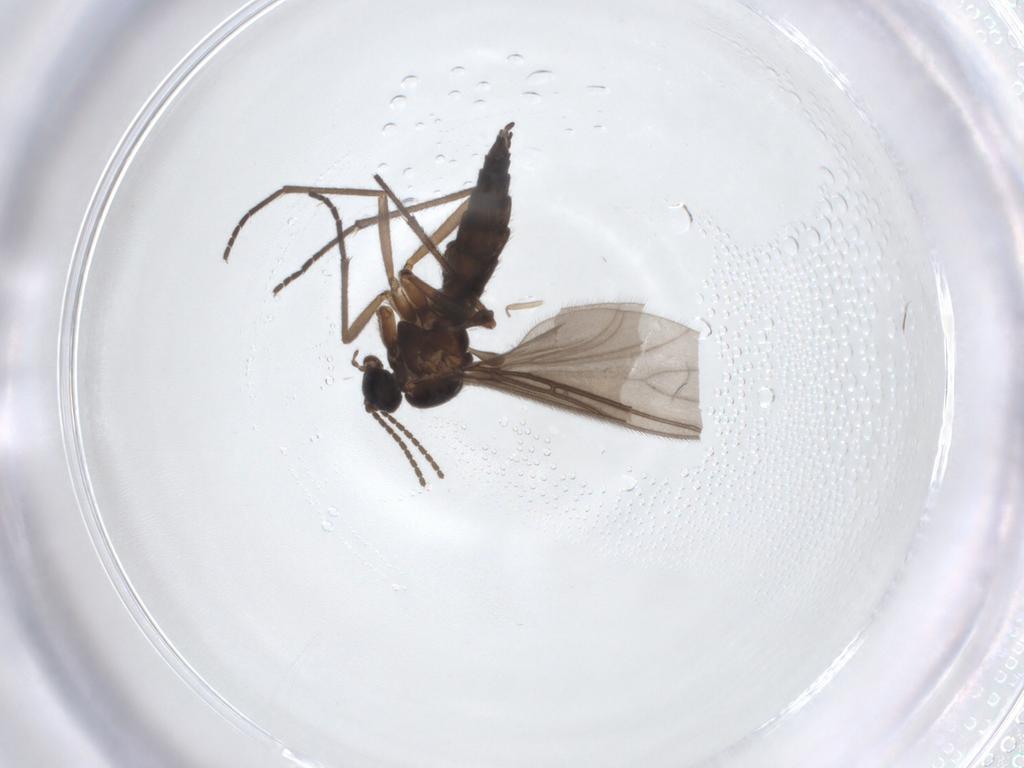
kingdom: Animalia
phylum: Arthropoda
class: Insecta
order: Diptera
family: Sciaridae
